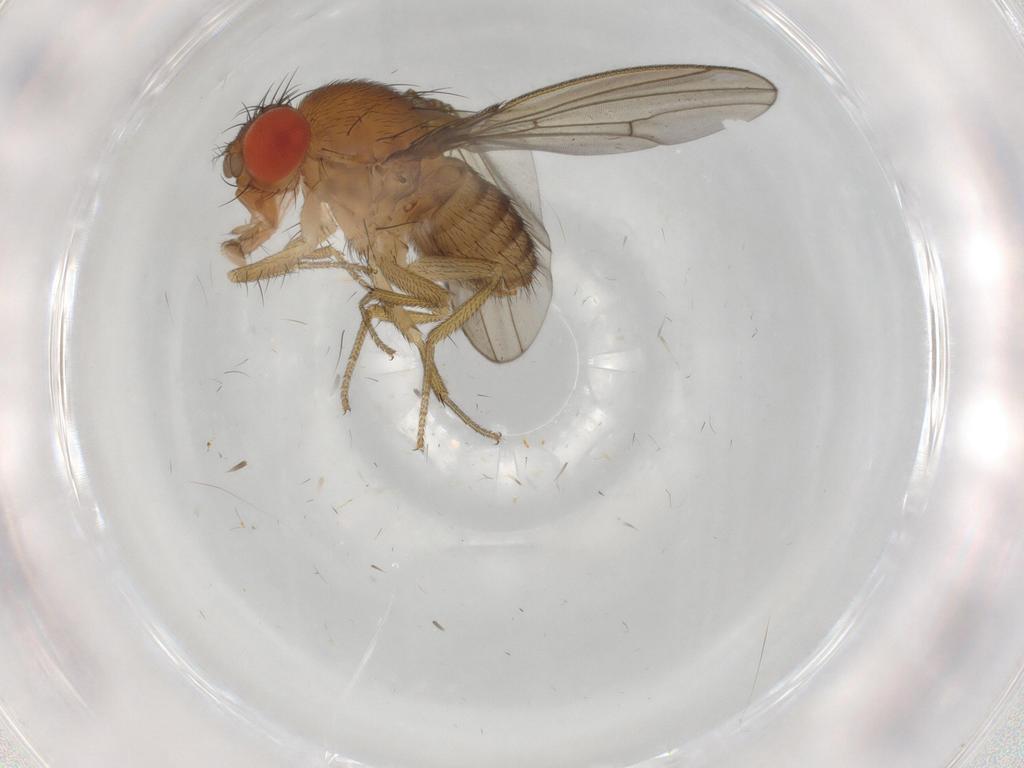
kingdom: Animalia
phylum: Arthropoda
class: Insecta
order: Diptera
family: Drosophilidae
